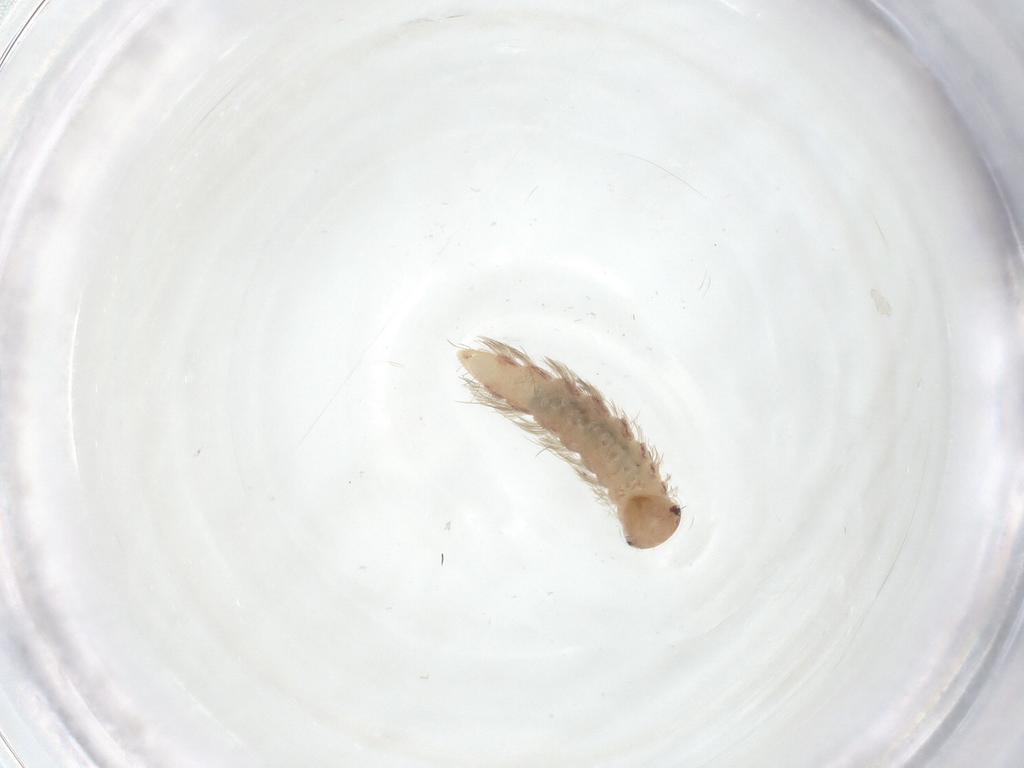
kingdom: Animalia
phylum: Arthropoda
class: Diplopoda
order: Polyxenida
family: Polyxenidae
